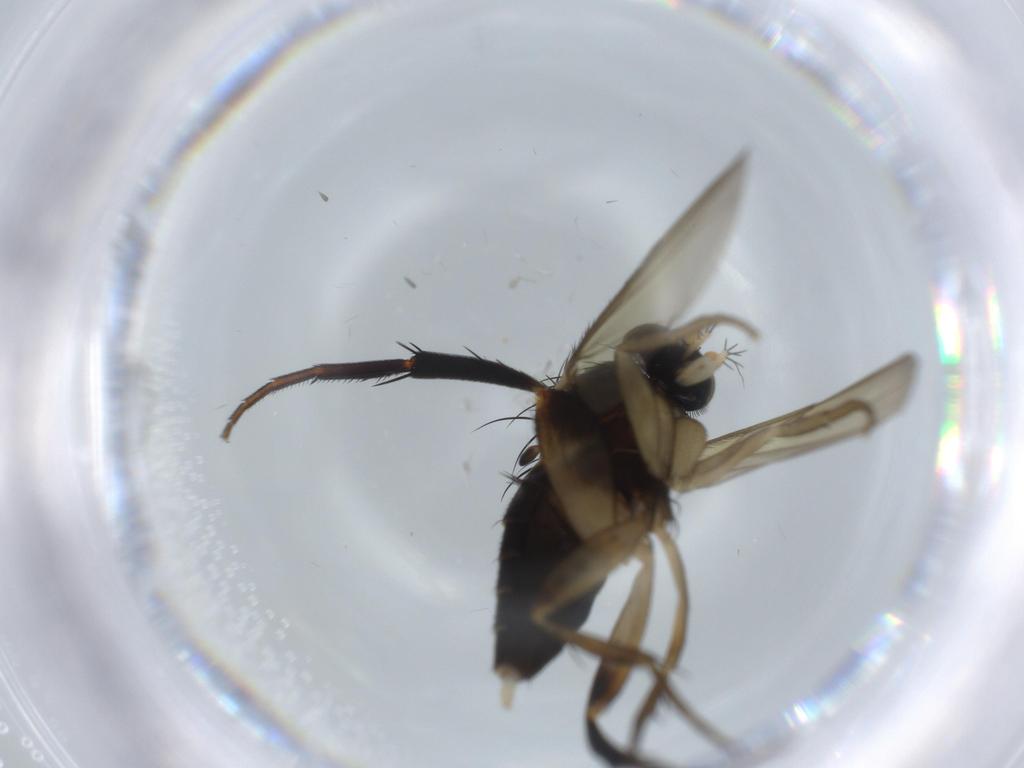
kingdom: Animalia
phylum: Arthropoda
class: Insecta
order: Diptera
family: Phoridae
